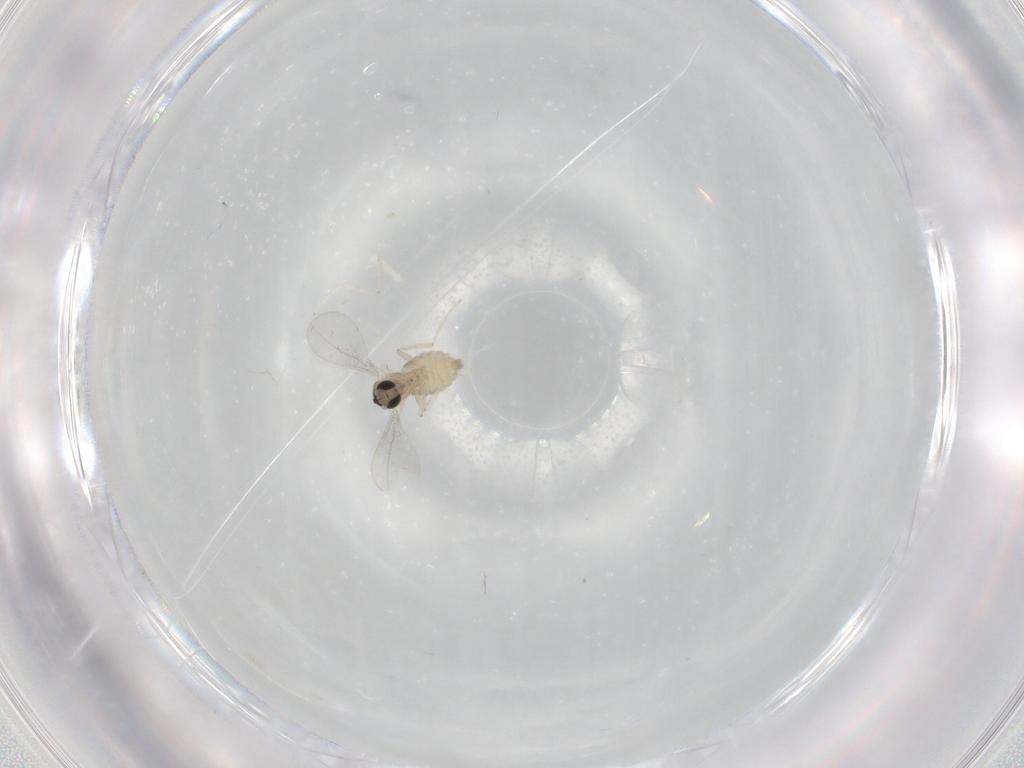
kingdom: Animalia
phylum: Arthropoda
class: Insecta
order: Diptera
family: Cecidomyiidae
